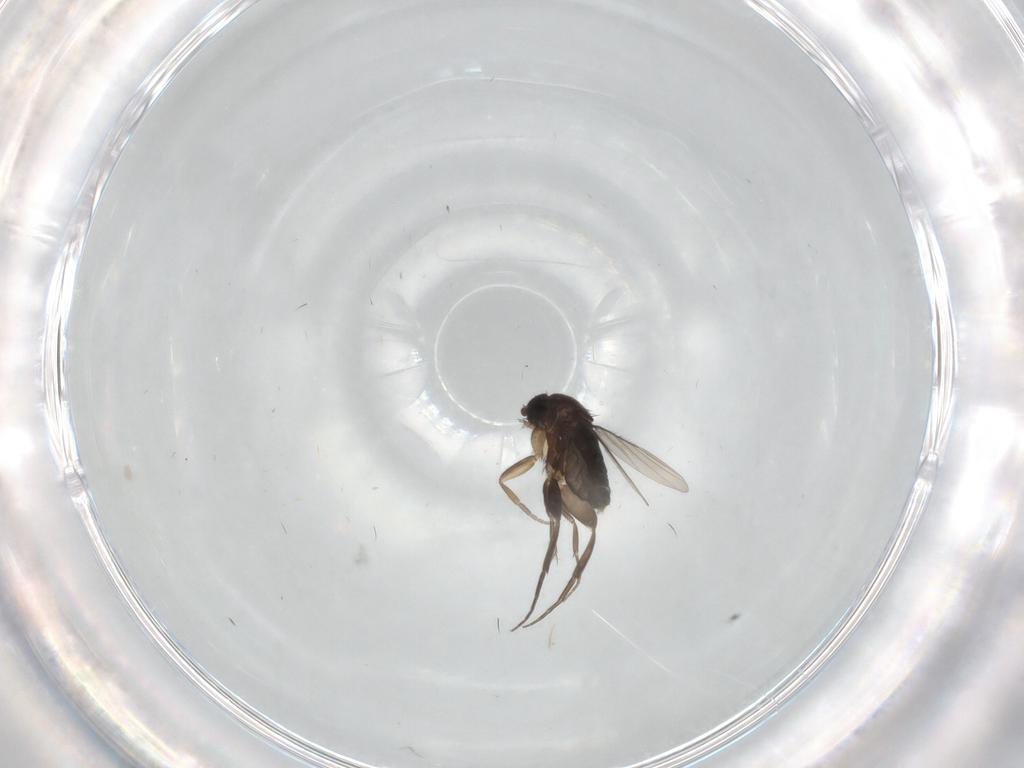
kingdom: Animalia
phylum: Arthropoda
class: Insecta
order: Diptera
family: Phoridae
